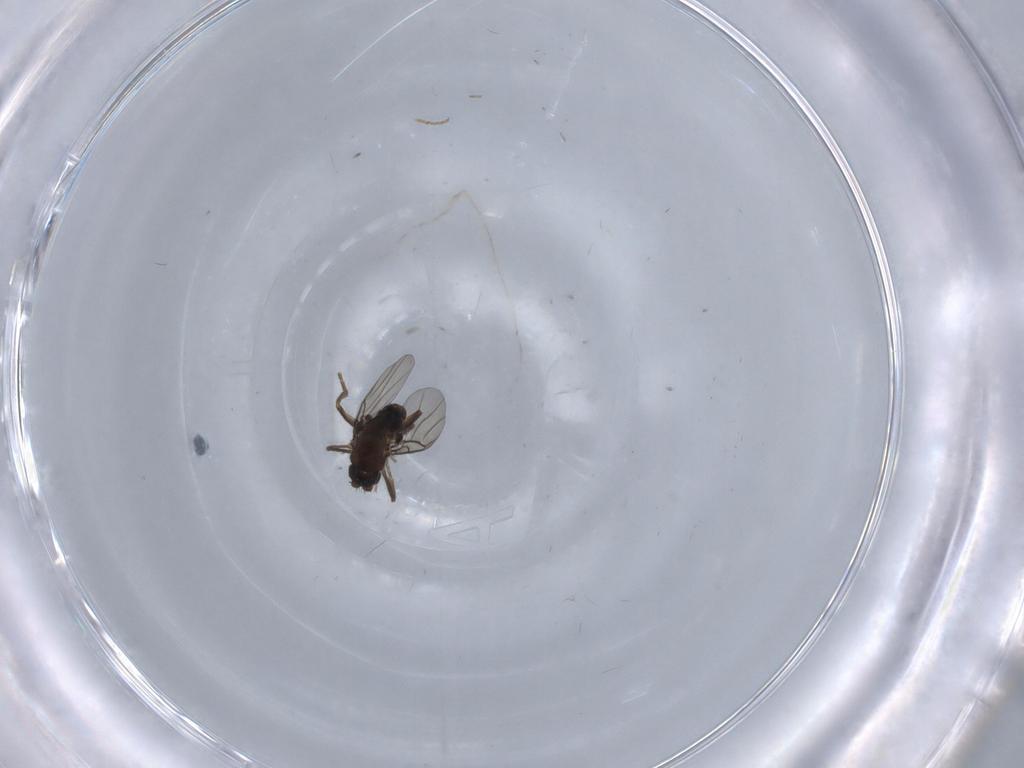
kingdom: Animalia
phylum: Arthropoda
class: Insecta
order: Diptera
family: Phoridae
